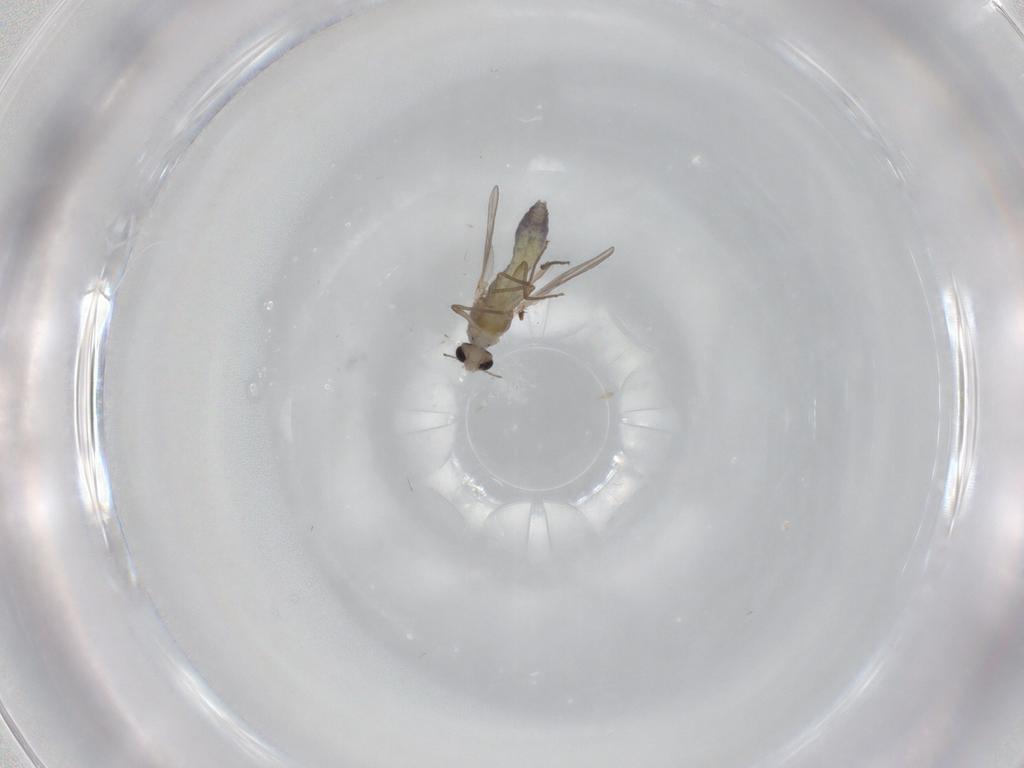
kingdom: Animalia
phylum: Arthropoda
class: Insecta
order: Diptera
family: Chironomidae
